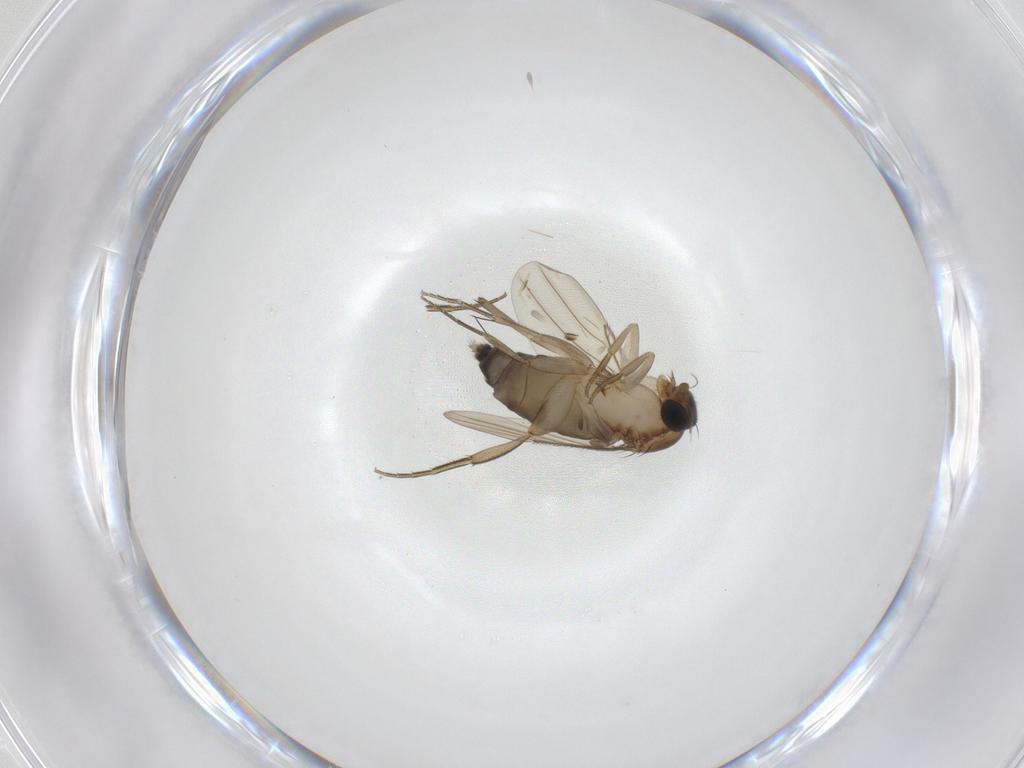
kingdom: Animalia
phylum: Arthropoda
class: Insecta
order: Diptera
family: Phoridae
